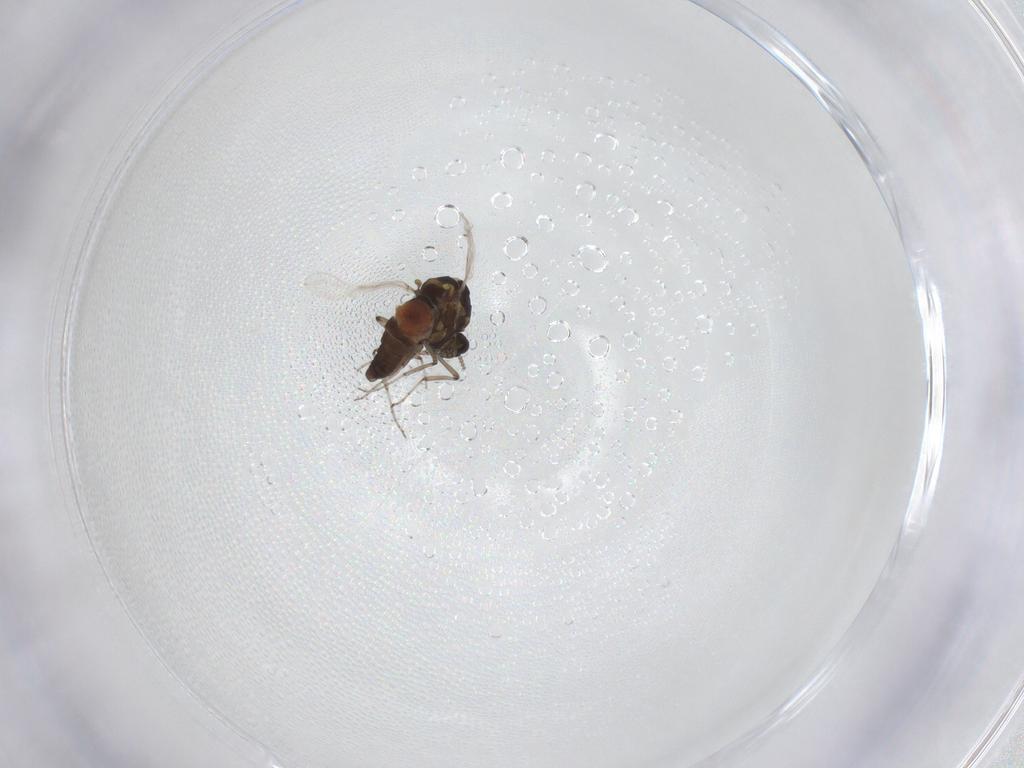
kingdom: Animalia
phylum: Arthropoda
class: Insecta
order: Diptera
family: Ceratopogonidae
